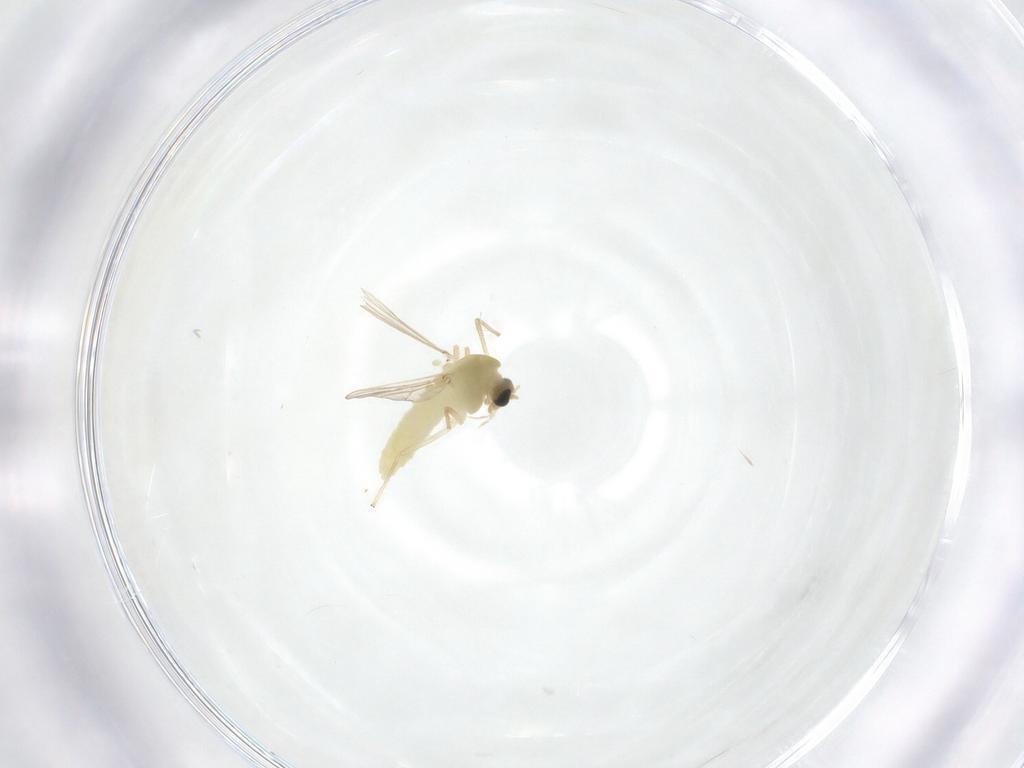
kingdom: Animalia
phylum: Arthropoda
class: Insecta
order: Diptera
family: Chironomidae
